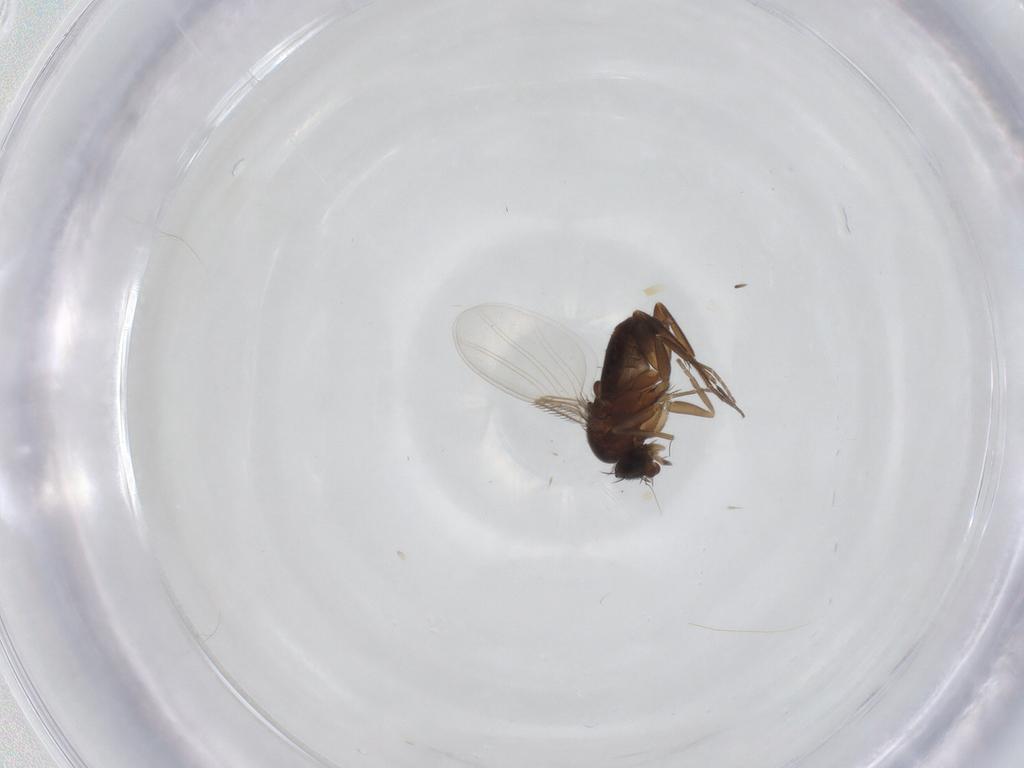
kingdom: Animalia
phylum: Arthropoda
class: Insecta
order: Diptera
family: Phoridae
